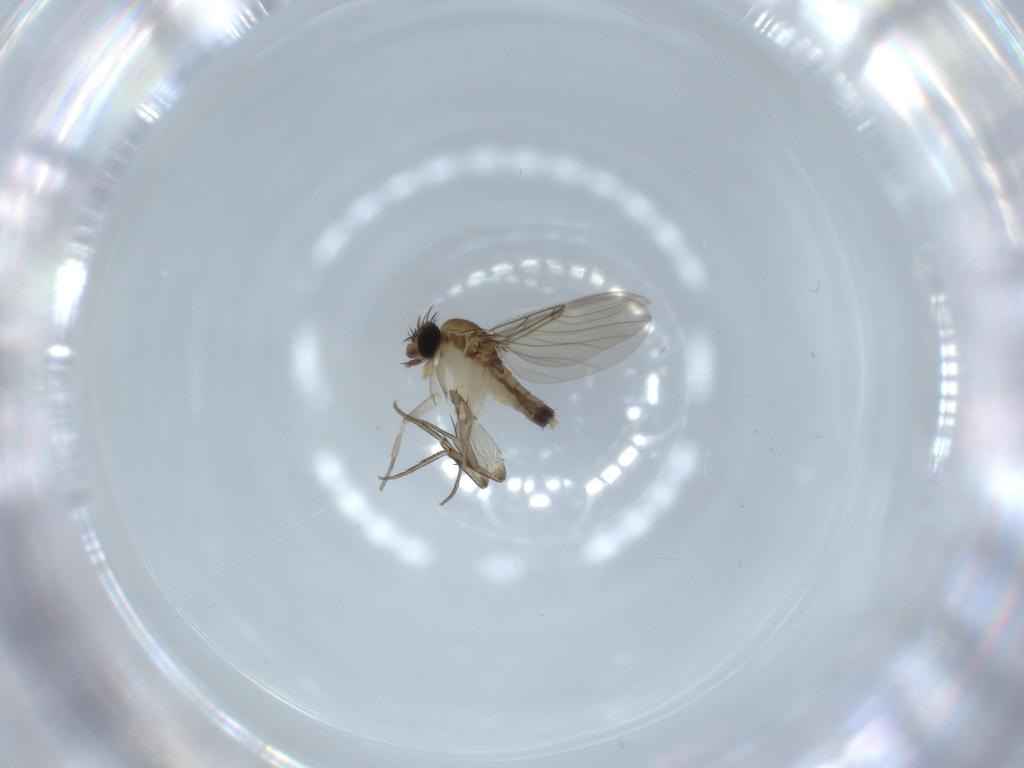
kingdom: Animalia
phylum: Arthropoda
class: Insecta
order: Diptera
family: Phoridae
